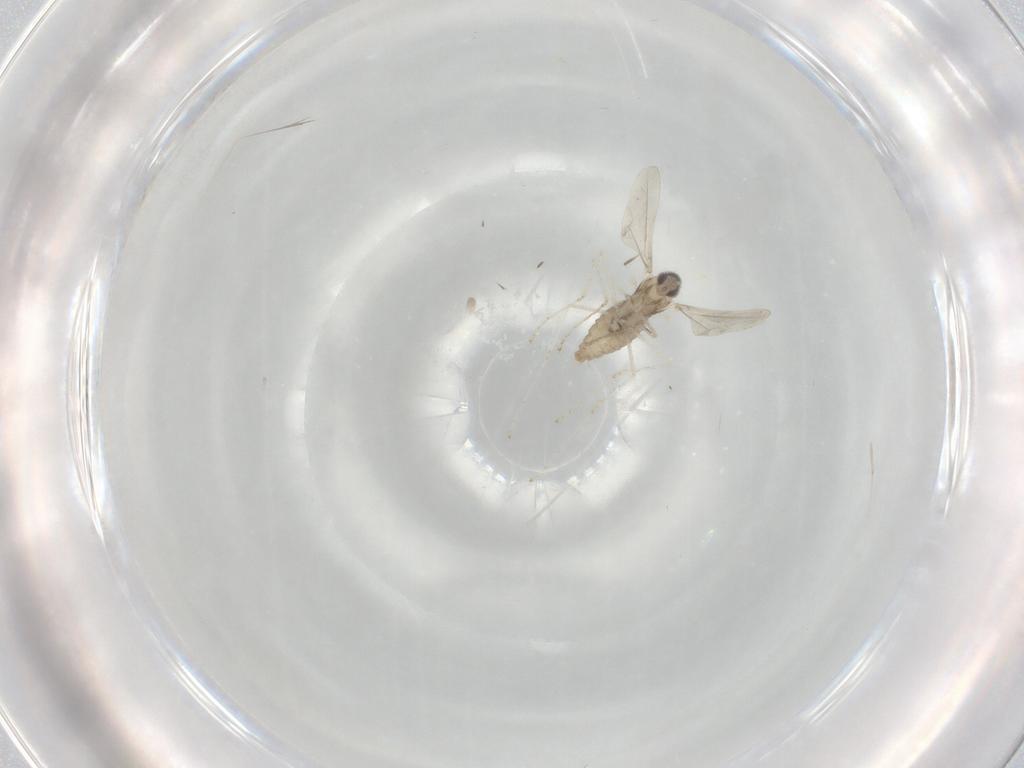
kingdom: Animalia
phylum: Arthropoda
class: Insecta
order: Diptera
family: Cecidomyiidae
